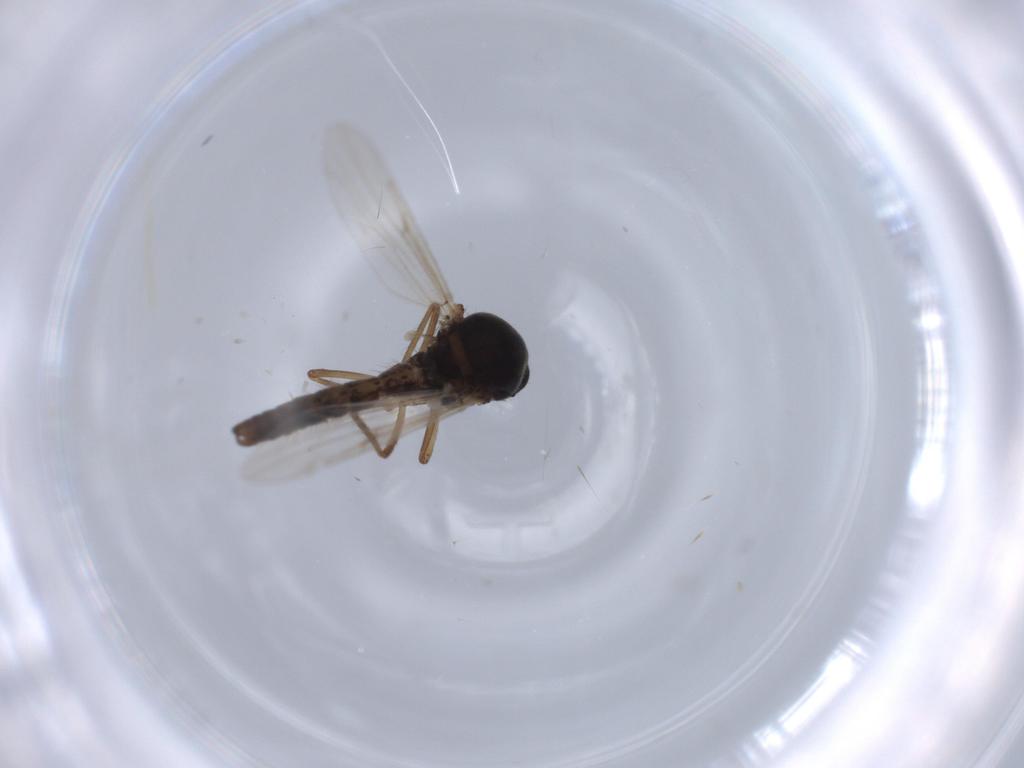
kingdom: Animalia
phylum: Arthropoda
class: Insecta
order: Diptera
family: Ceratopogonidae
